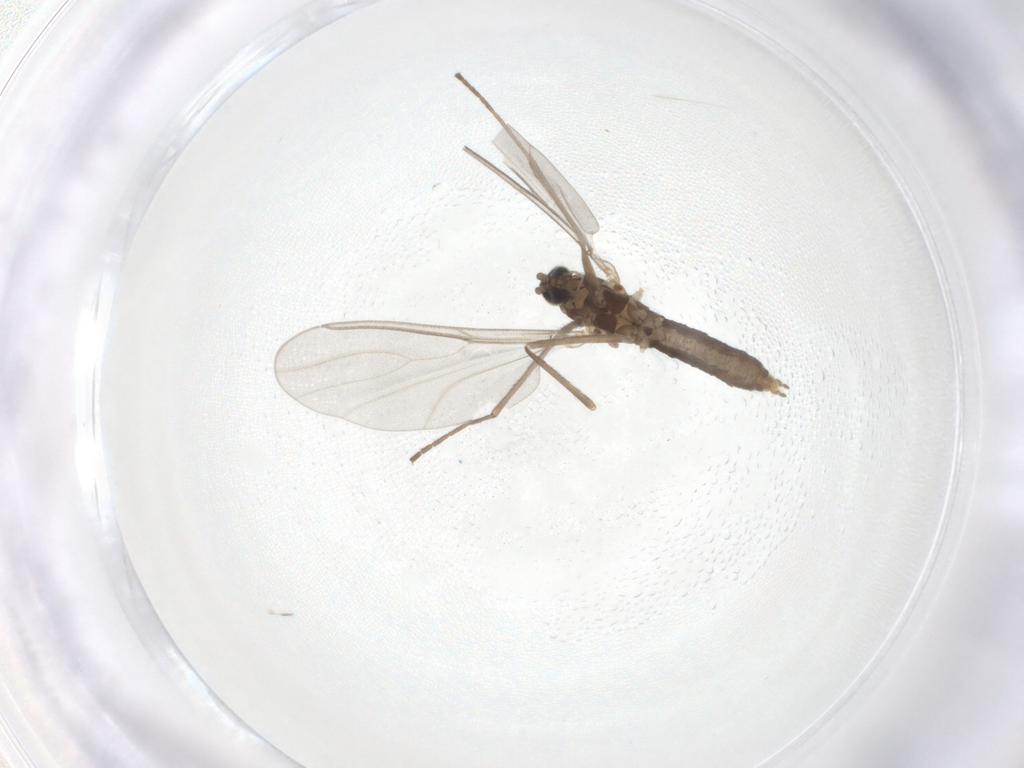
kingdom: Animalia
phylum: Arthropoda
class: Insecta
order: Diptera
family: Cecidomyiidae
